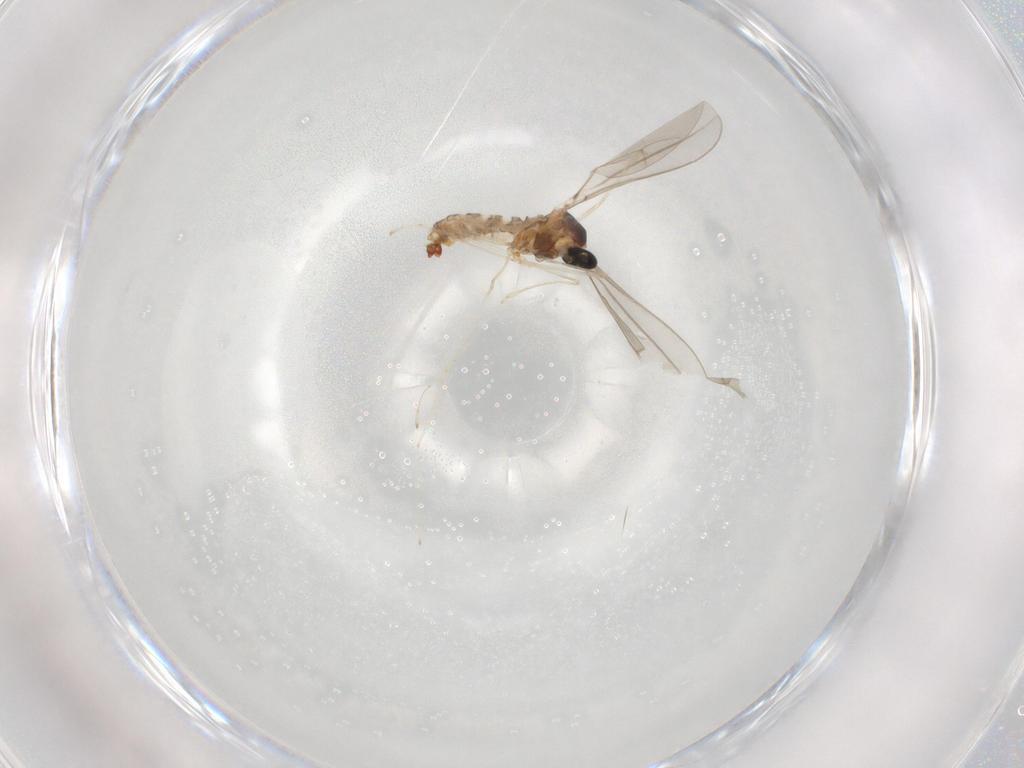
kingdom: Animalia
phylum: Arthropoda
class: Insecta
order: Diptera
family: Cecidomyiidae
